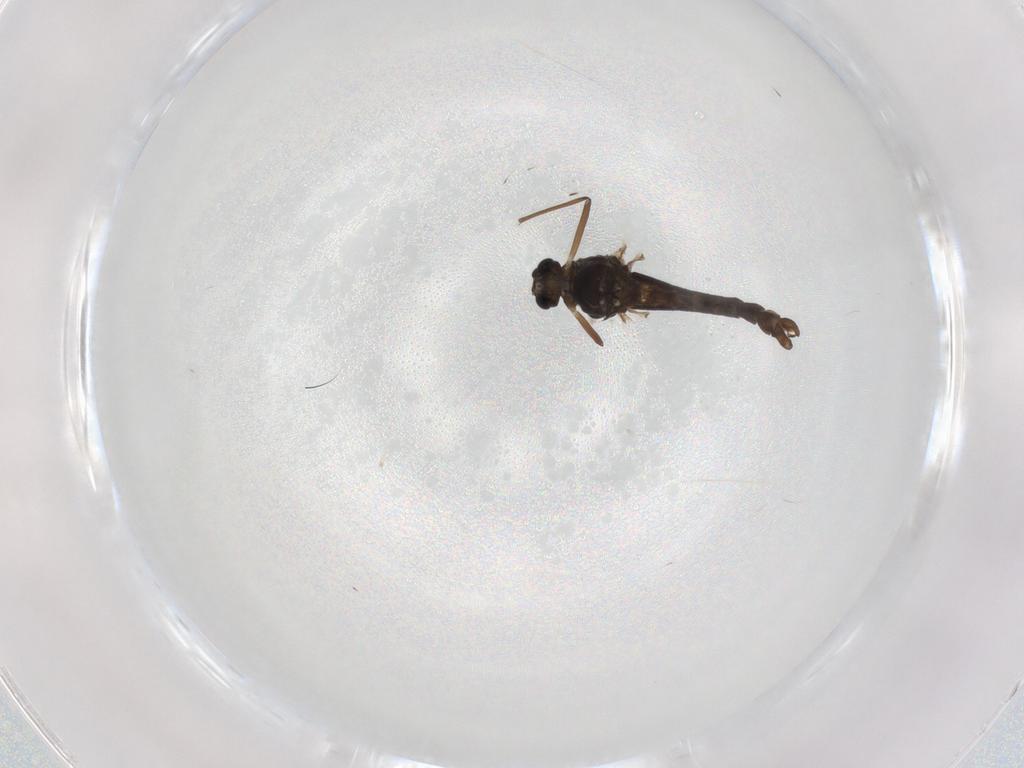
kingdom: Animalia
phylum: Arthropoda
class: Insecta
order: Diptera
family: Chironomidae
